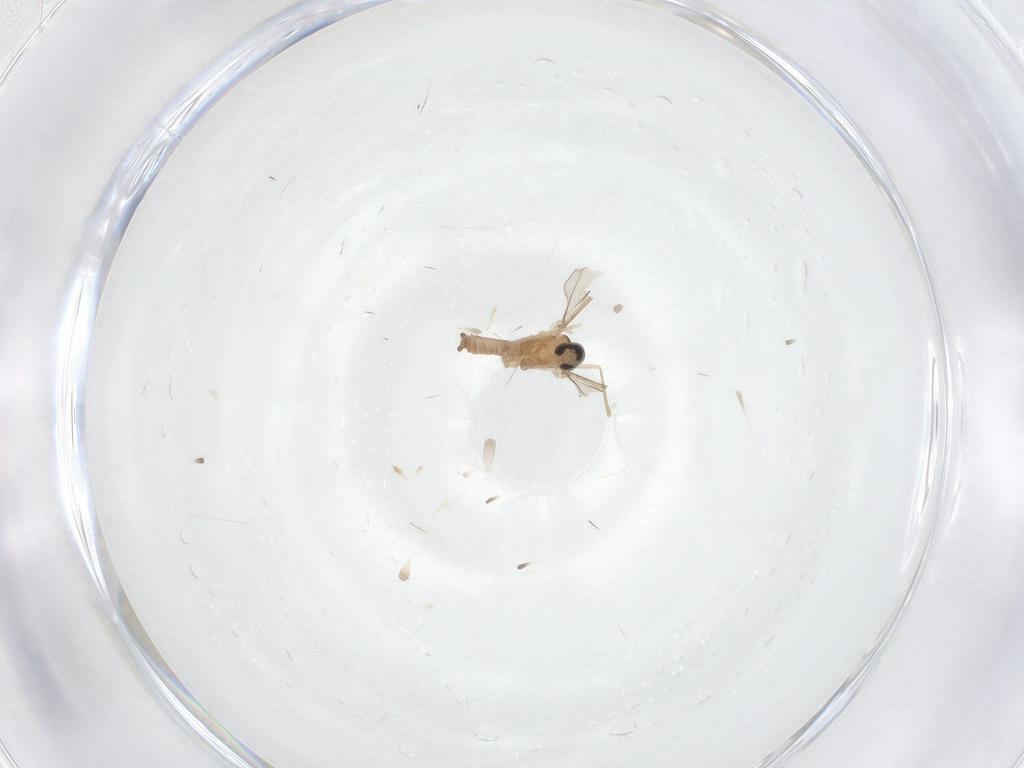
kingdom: Animalia
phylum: Arthropoda
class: Insecta
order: Diptera
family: Cecidomyiidae
